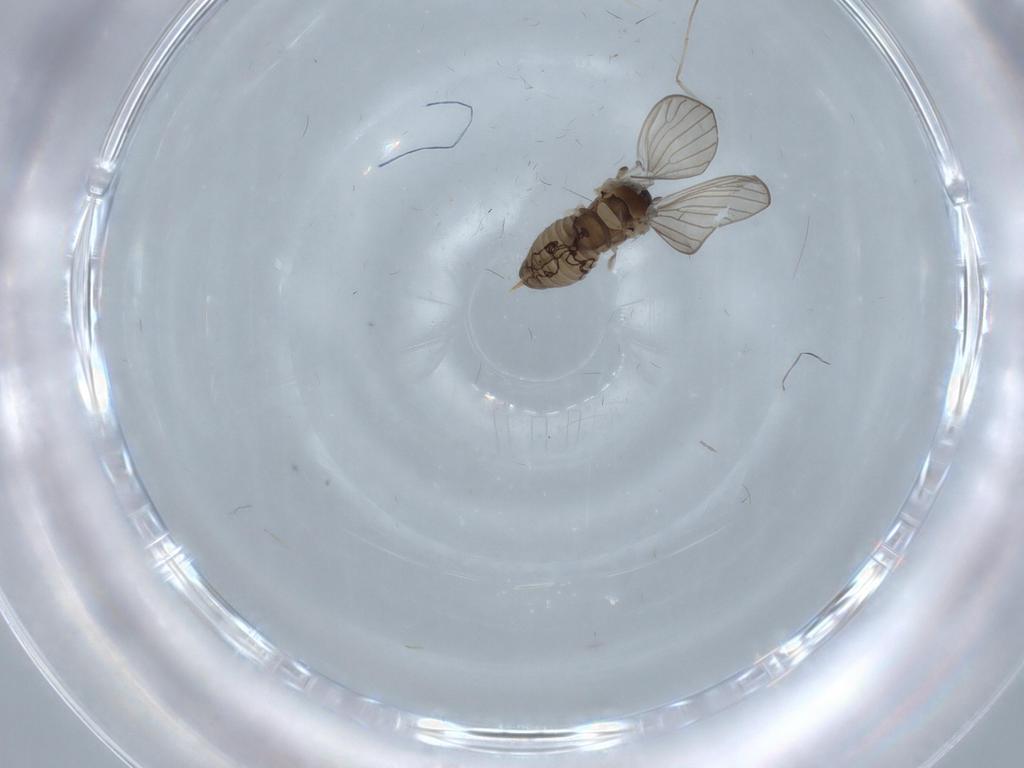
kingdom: Animalia
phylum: Arthropoda
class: Insecta
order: Diptera
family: Psychodidae
